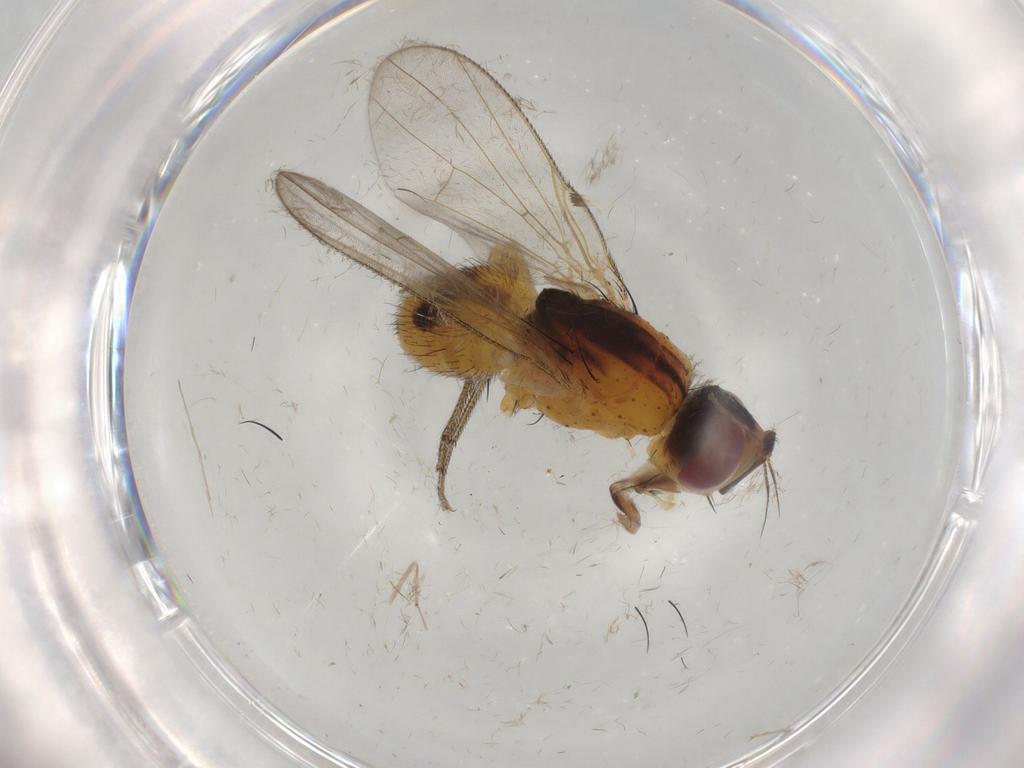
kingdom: Animalia
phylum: Arthropoda
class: Insecta
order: Diptera
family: Muscidae
